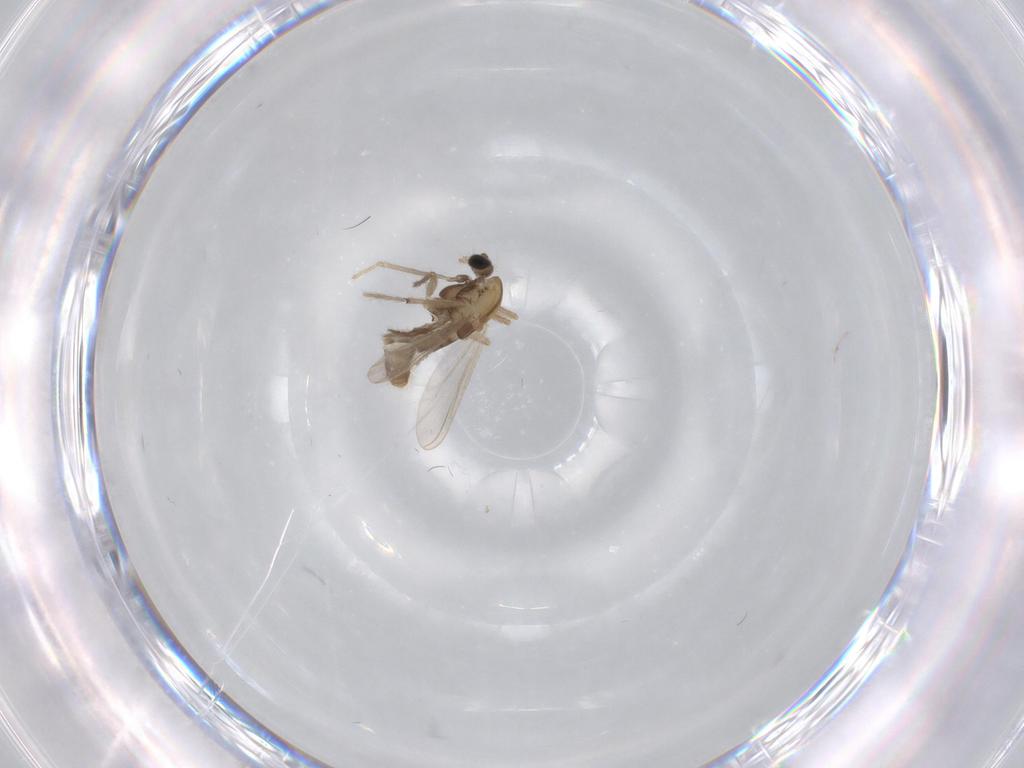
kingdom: Animalia
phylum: Arthropoda
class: Insecta
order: Diptera
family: Chironomidae
